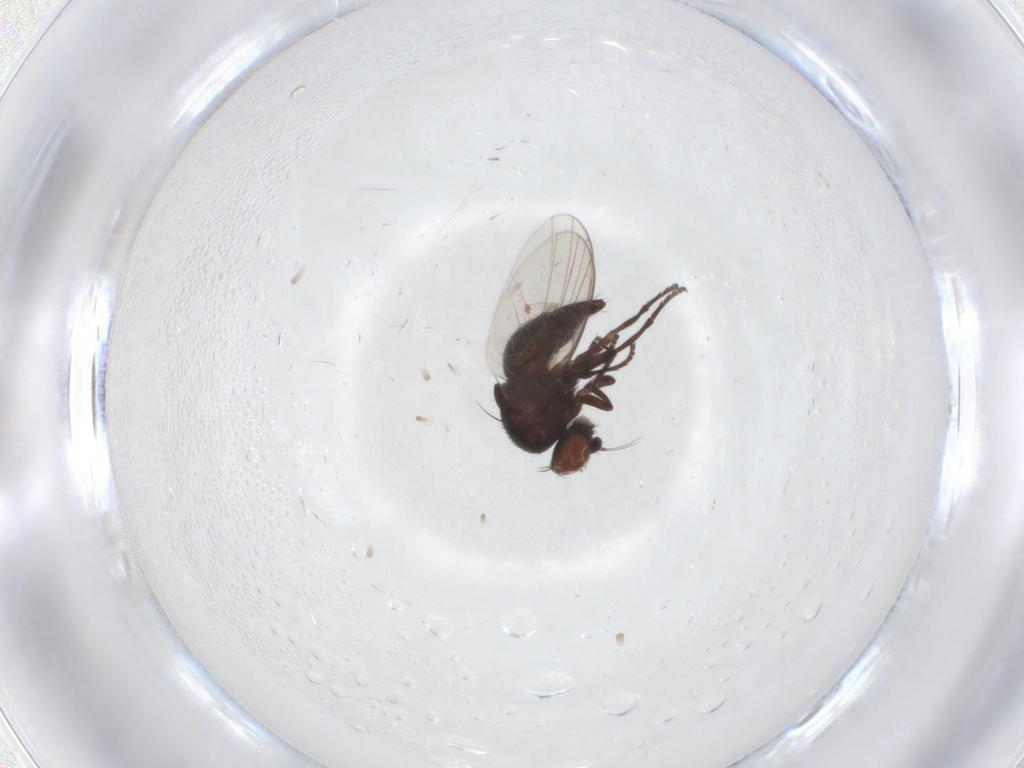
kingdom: Animalia
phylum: Arthropoda
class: Insecta
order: Diptera
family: Agromyzidae
